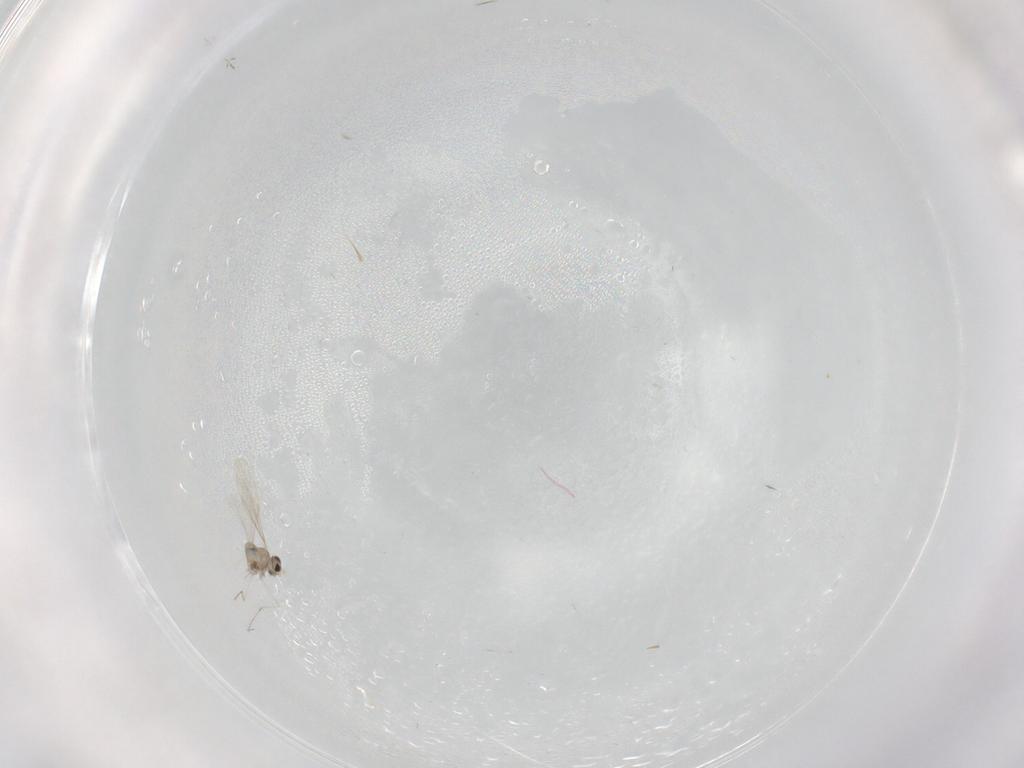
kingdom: Animalia
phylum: Arthropoda
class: Insecta
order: Diptera
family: Cecidomyiidae
